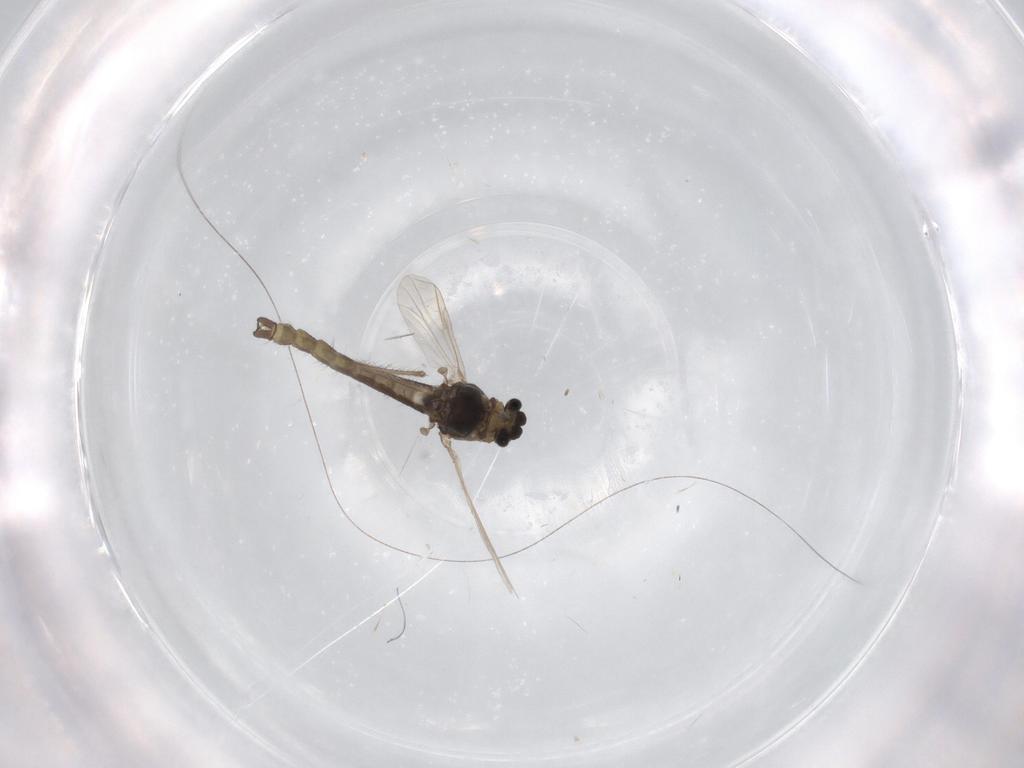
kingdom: Animalia
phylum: Arthropoda
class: Insecta
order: Diptera
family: Chironomidae
